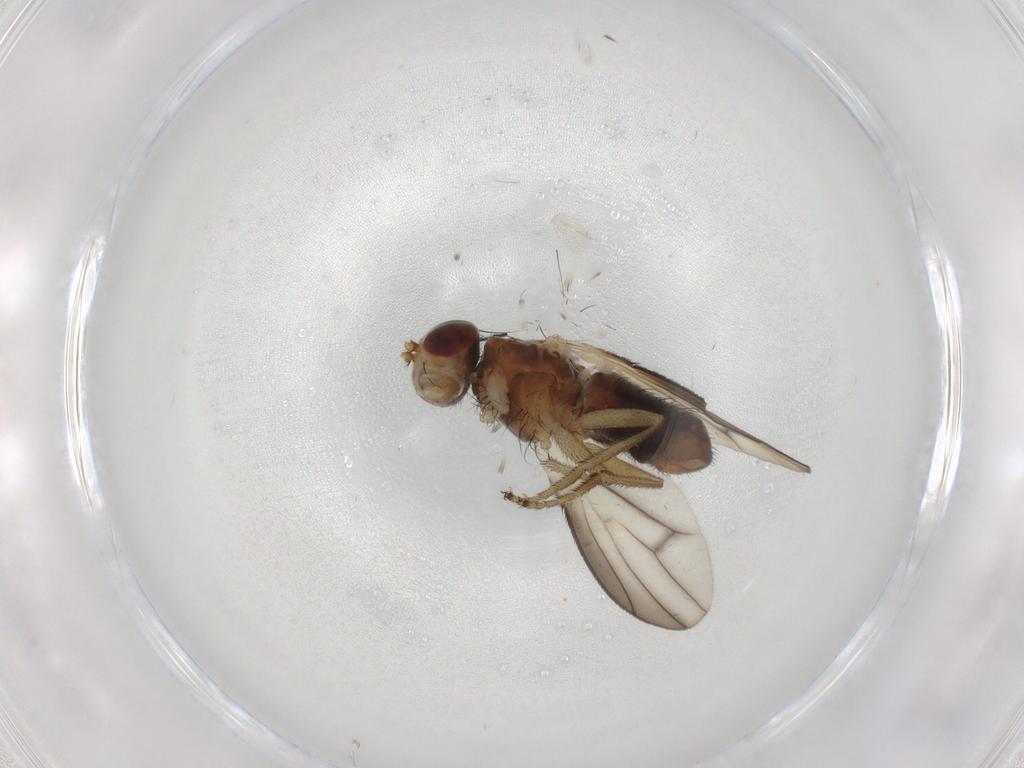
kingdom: Animalia
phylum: Arthropoda
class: Insecta
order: Diptera
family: Heleomyzidae
